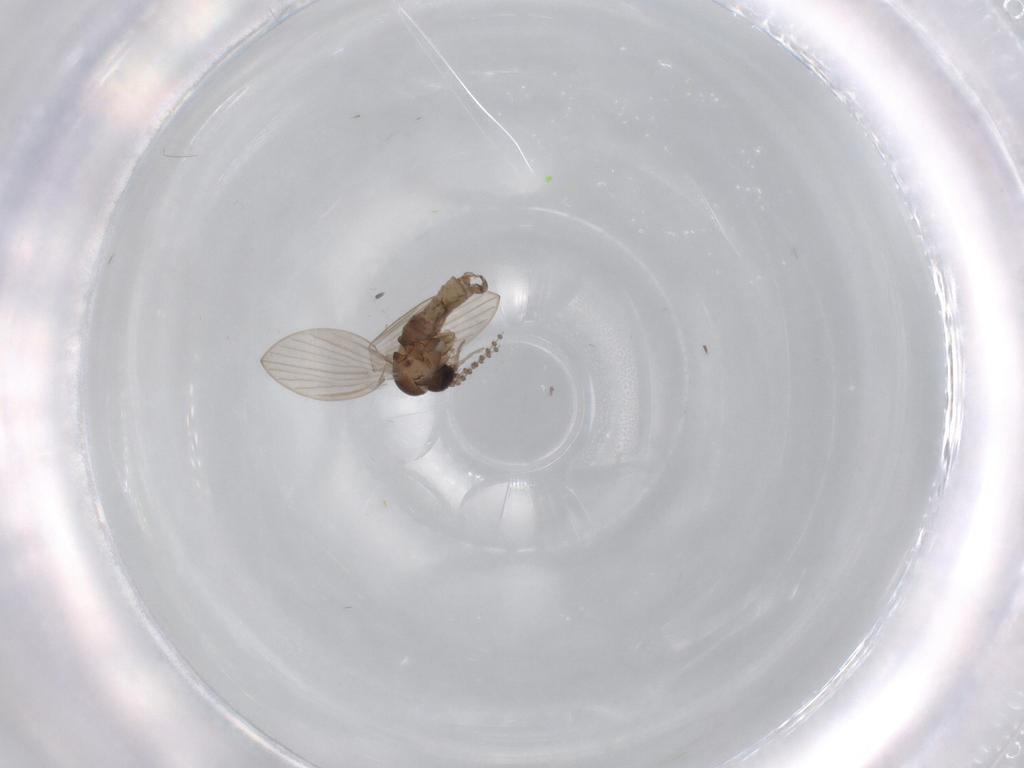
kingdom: Animalia
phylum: Arthropoda
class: Insecta
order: Diptera
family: Psychodidae
